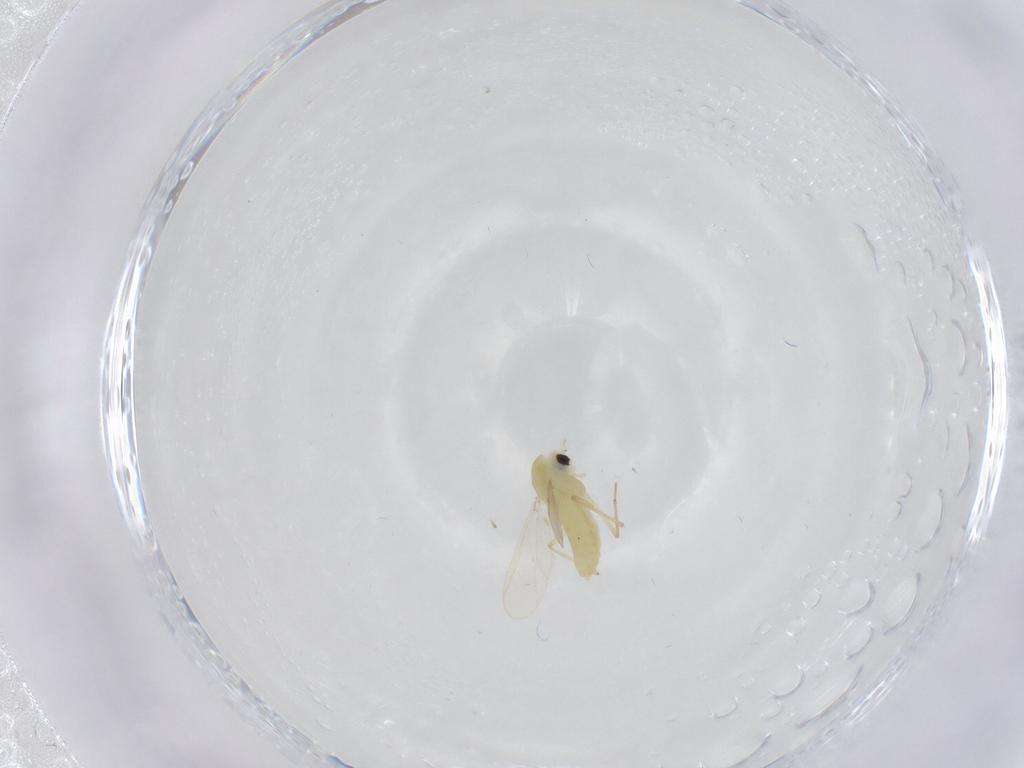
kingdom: Animalia
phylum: Arthropoda
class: Insecta
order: Diptera
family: Chironomidae
